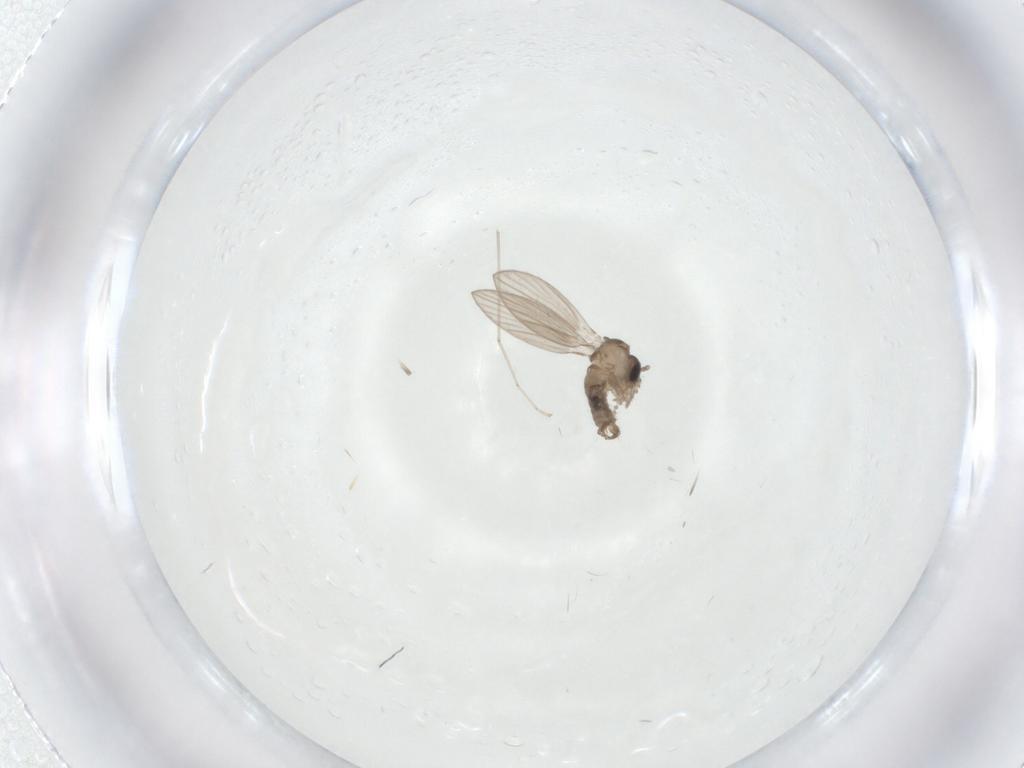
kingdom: Animalia
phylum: Arthropoda
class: Insecta
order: Diptera
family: Psychodidae
